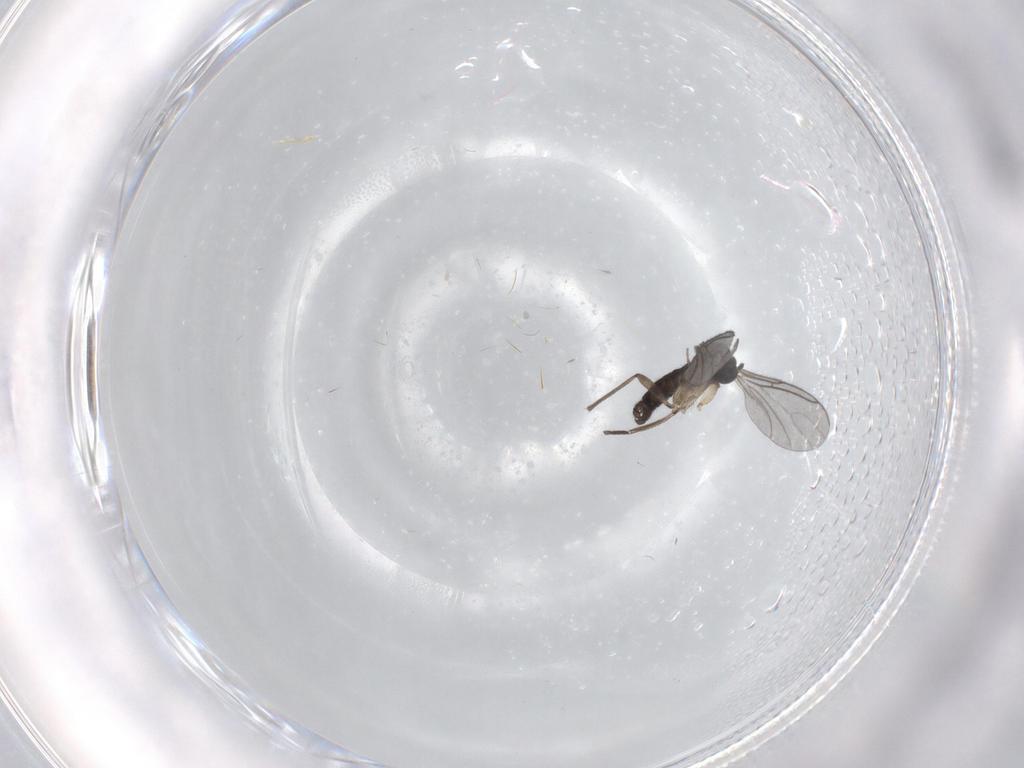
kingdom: Animalia
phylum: Arthropoda
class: Insecta
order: Diptera
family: Sciaridae
